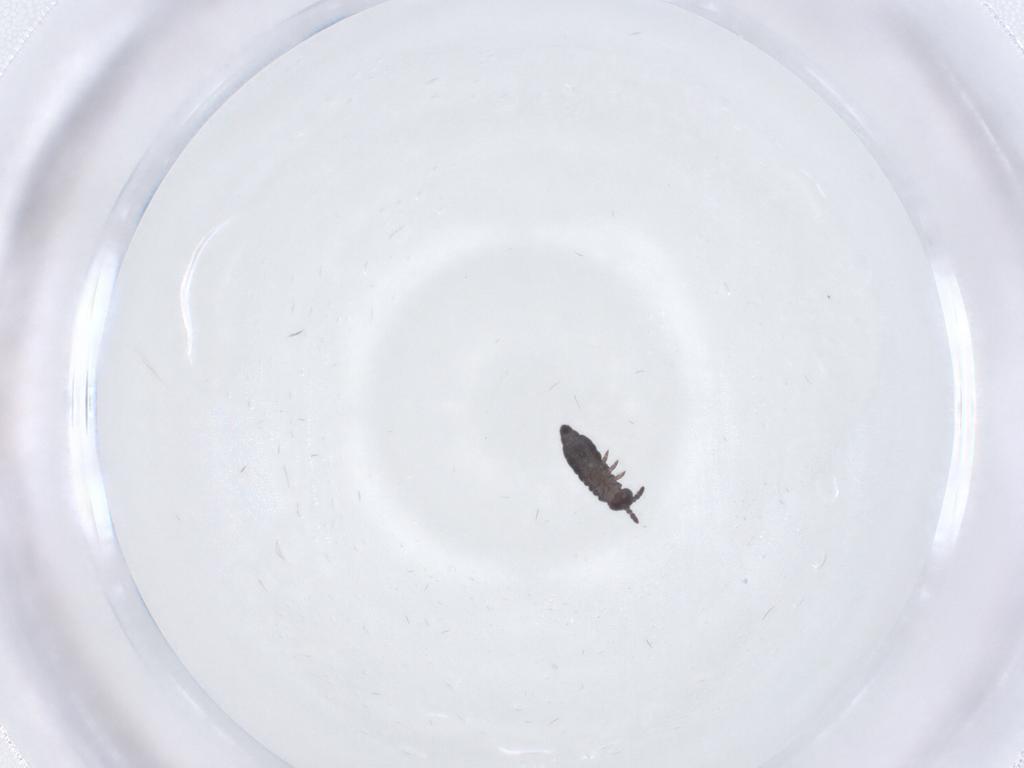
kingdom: Animalia
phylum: Arthropoda
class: Collembola
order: Poduromorpha
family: Hypogastruridae
